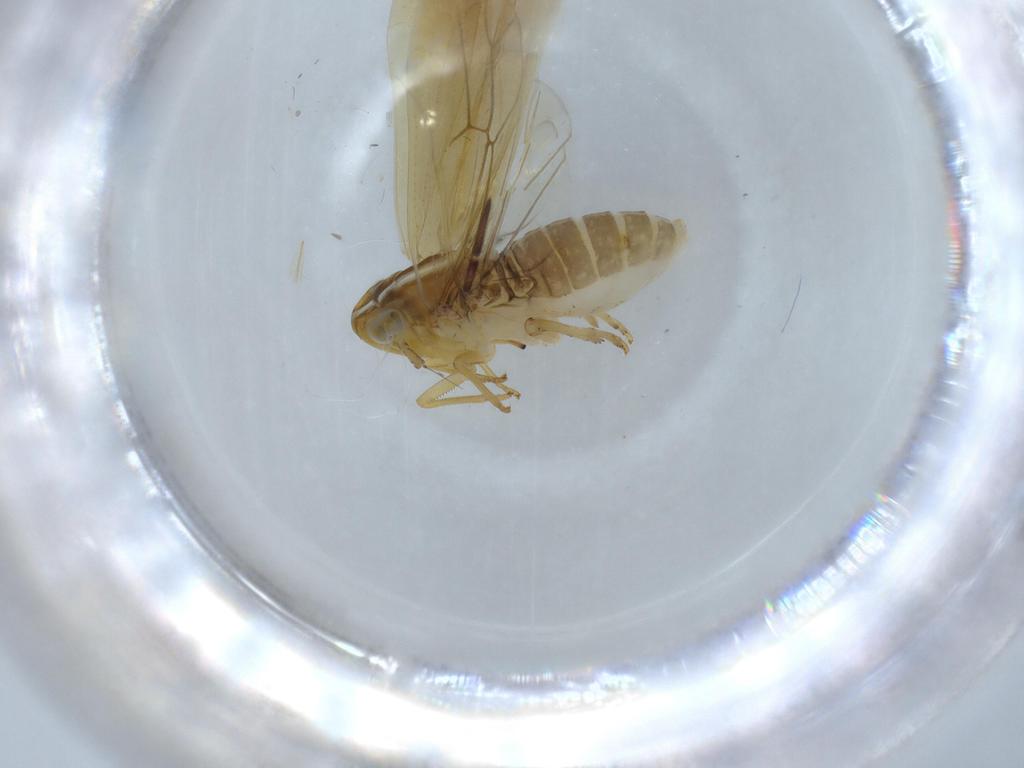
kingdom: Animalia
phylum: Arthropoda
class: Insecta
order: Hemiptera
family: Delphacidae
